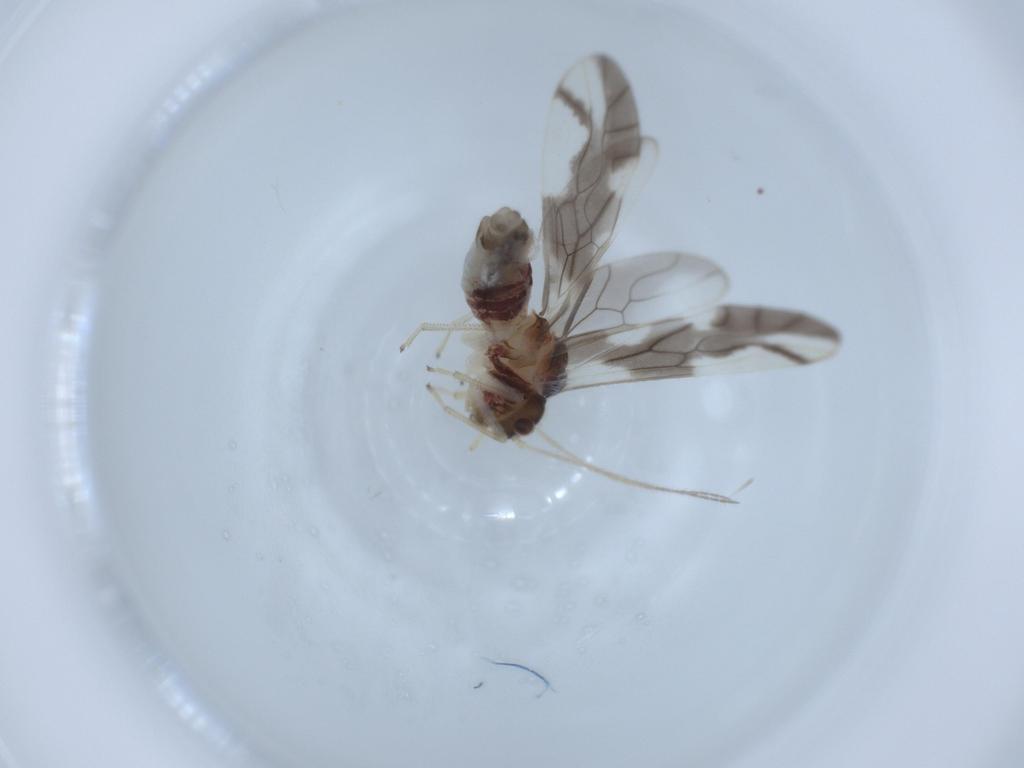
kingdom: Animalia
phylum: Arthropoda
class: Insecta
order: Psocodea
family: Caeciliusidae
